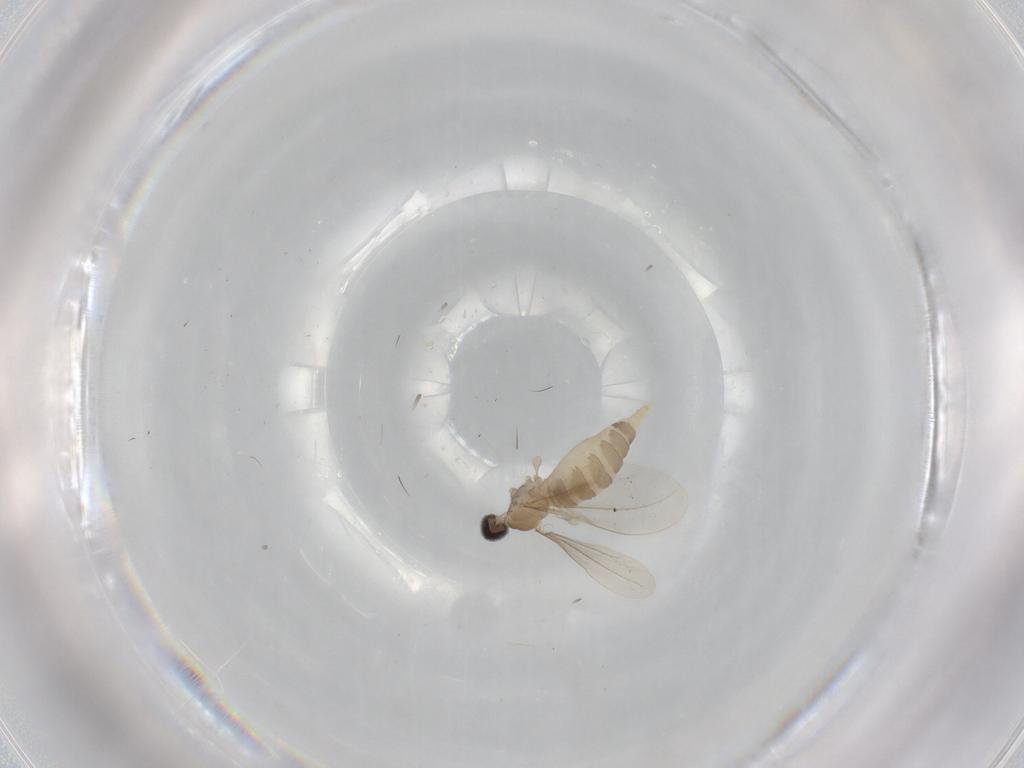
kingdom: Animalia
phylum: Arthropoda
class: Insecta
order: Diptera
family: Cecidomyiidae
